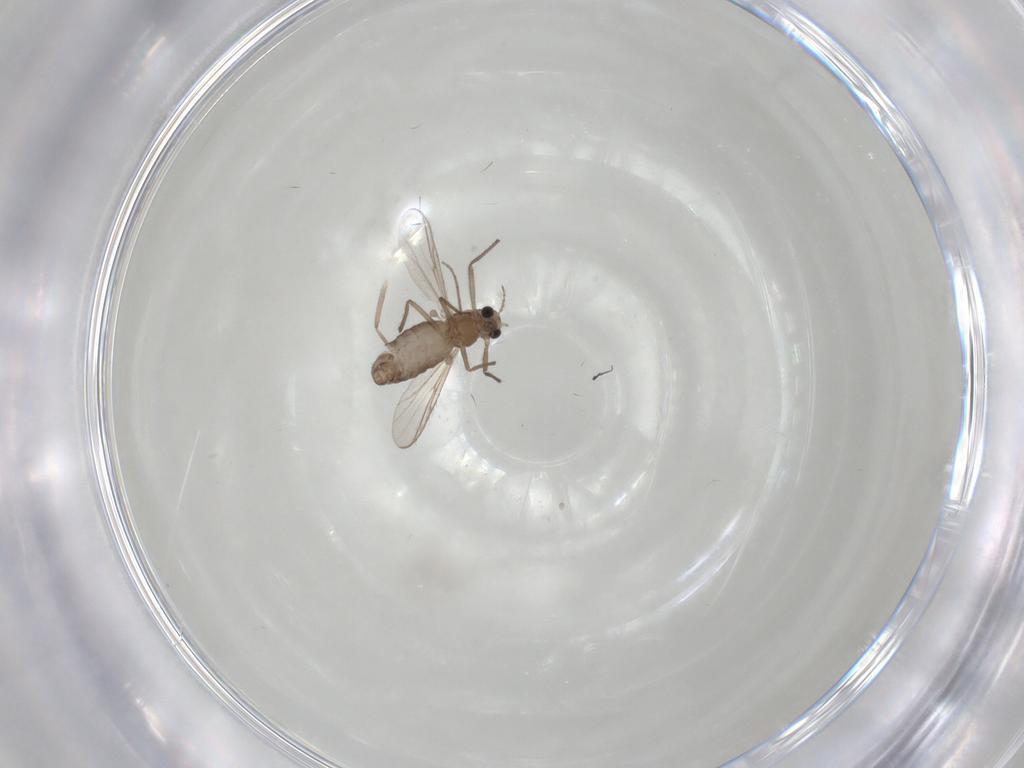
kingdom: Animalia
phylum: Arthropoda
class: Insecta
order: Diptera
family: Chironomidae
